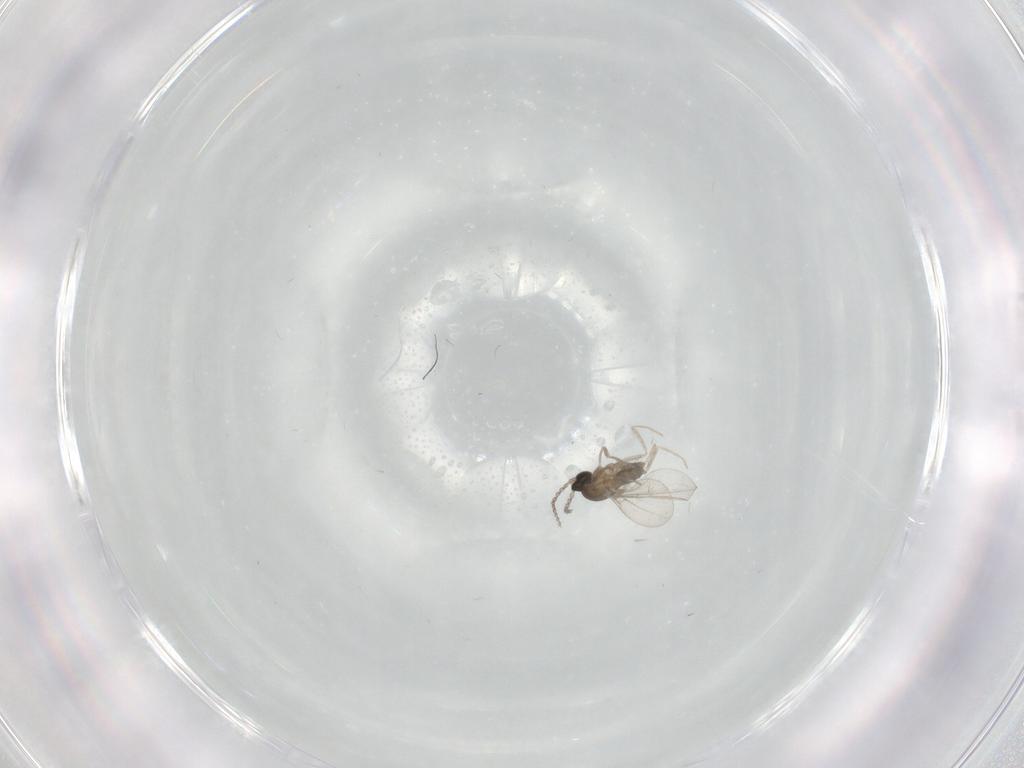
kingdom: Animalia
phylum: Arthropoda
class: Insecta
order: Diptera
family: Cecidomyiidae
